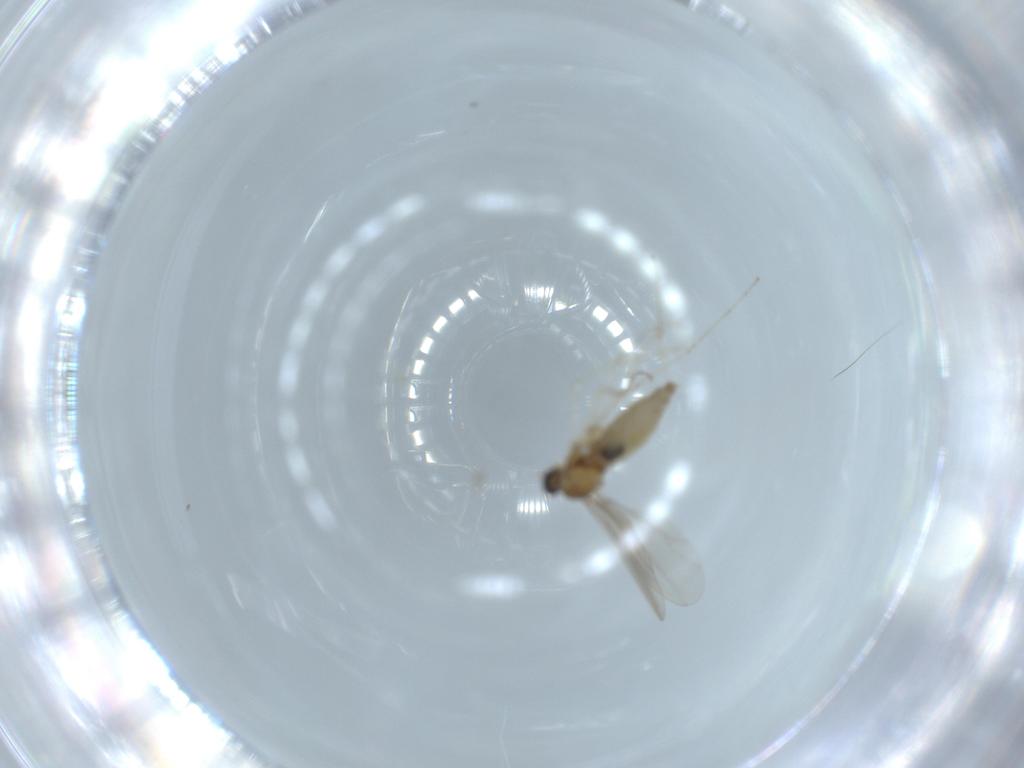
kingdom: Animalia
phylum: Arthropoda
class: Insecta
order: Diptera
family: Cecidomyiidae
